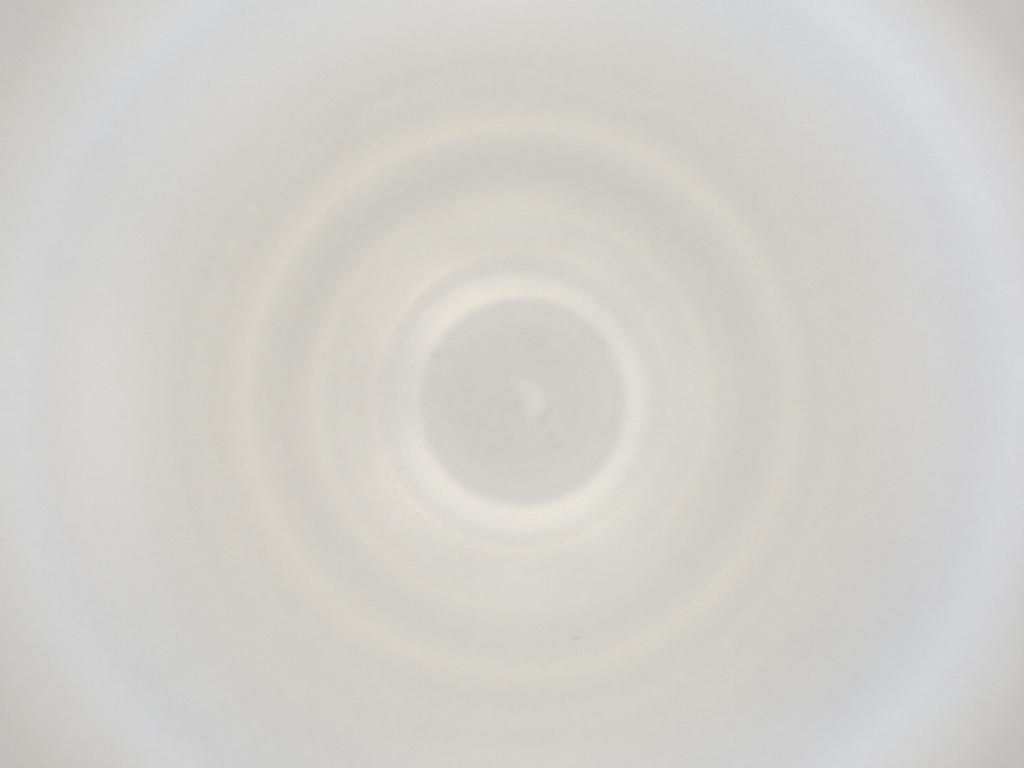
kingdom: Animalia
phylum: Arthropoda
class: Insecta
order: Diptera
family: Cecidomyiidae
